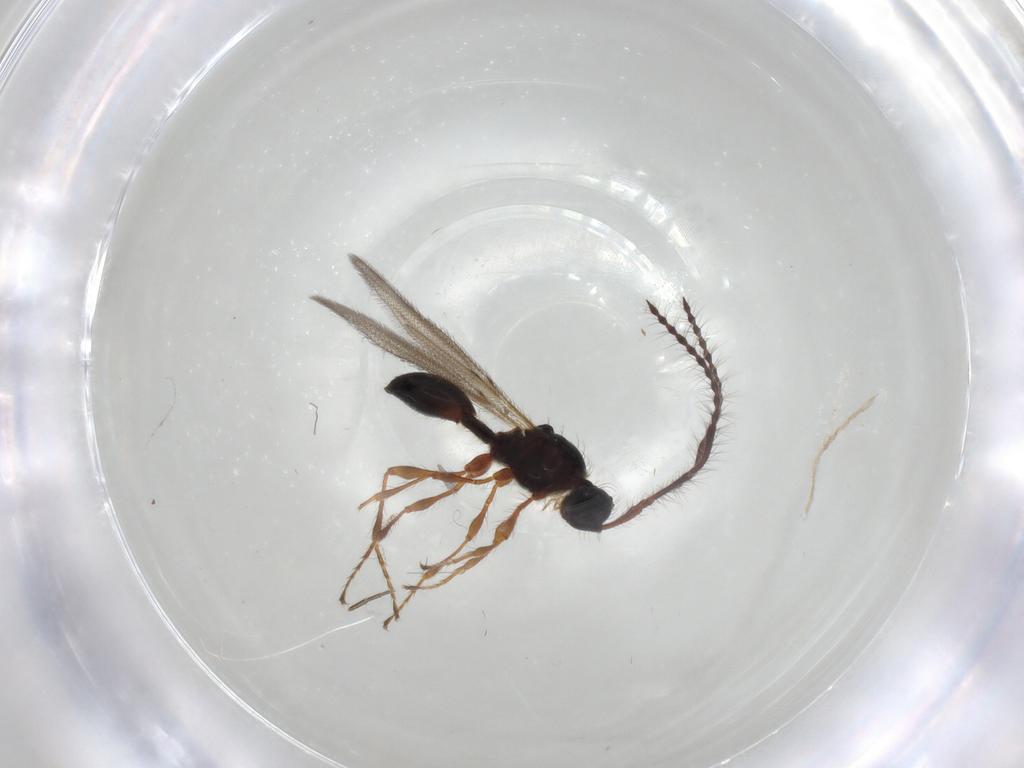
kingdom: Animalia
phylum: Arthropoda
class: Insecta
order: Hymenoptera
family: Diapriidae
